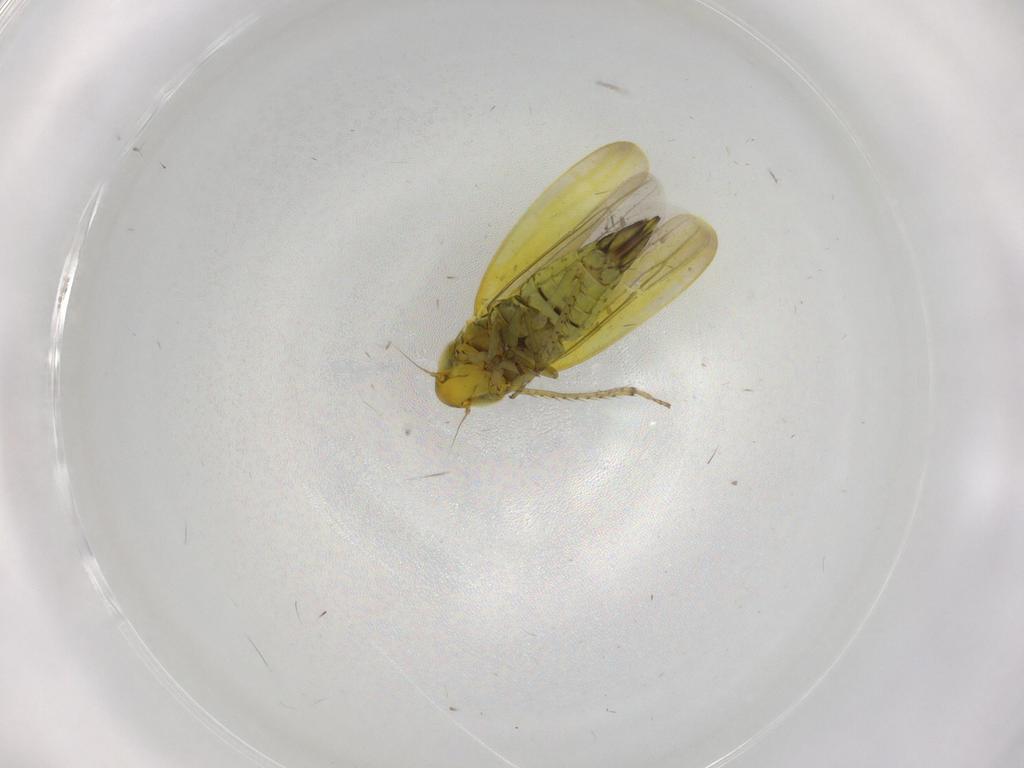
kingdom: Animalia
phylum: Arthropoda
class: Insecta
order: Hemiptera
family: Cicadellidae
